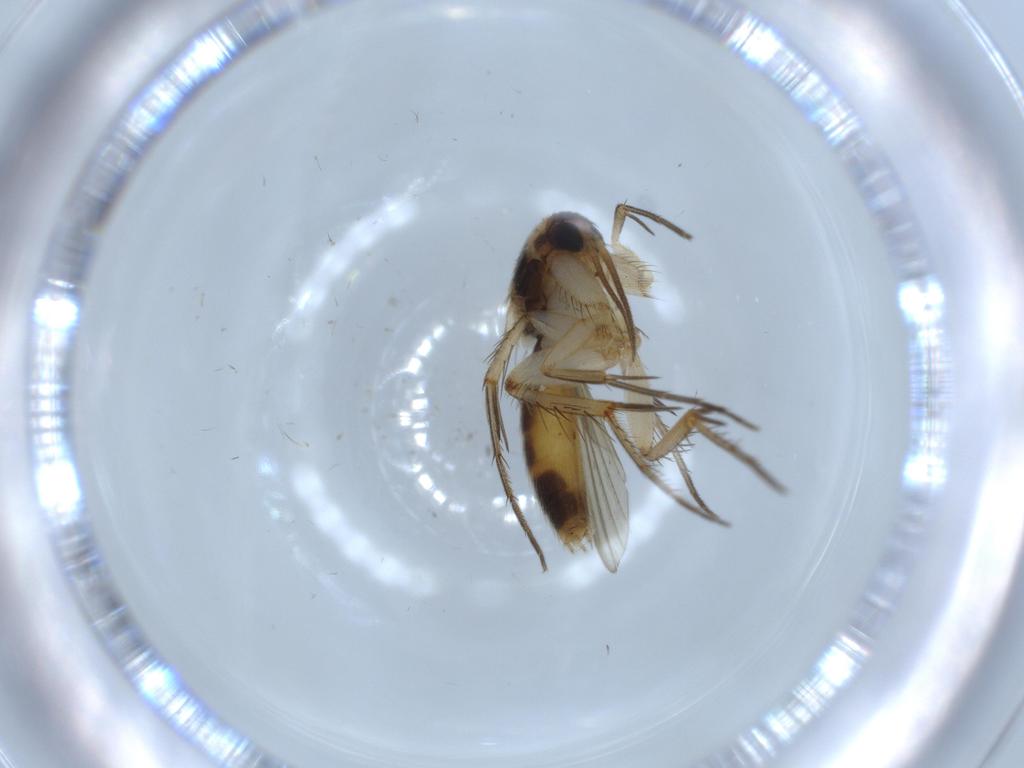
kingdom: Animalia
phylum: Arthropoda
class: Insecta
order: Diptera
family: Mycetophilidae
